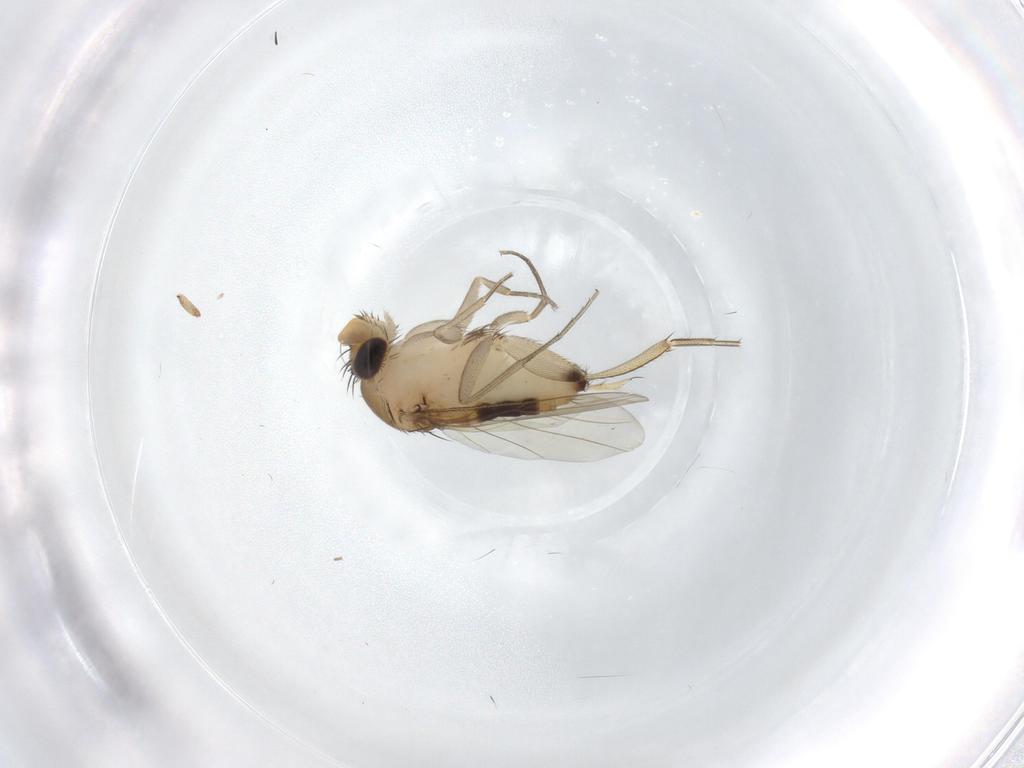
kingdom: Animalia
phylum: Arthropoda
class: Insecta
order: Diptera
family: Phoridae
